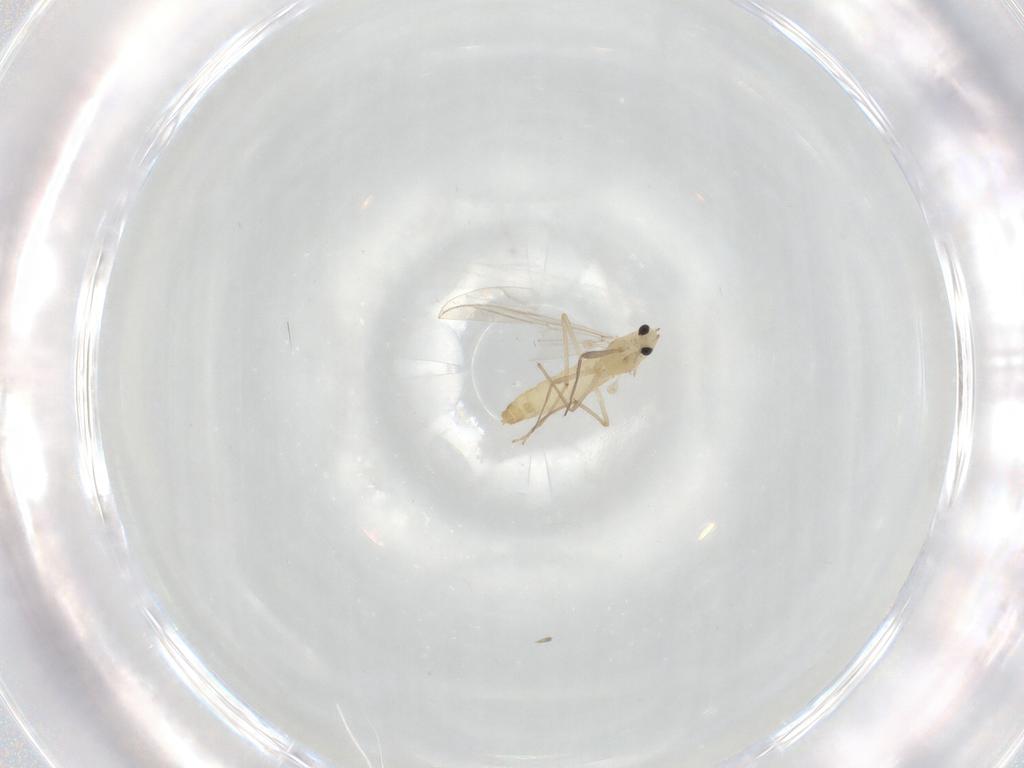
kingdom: Animalia
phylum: Arthropoda
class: Insecta
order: Diptera
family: Chironomidae
